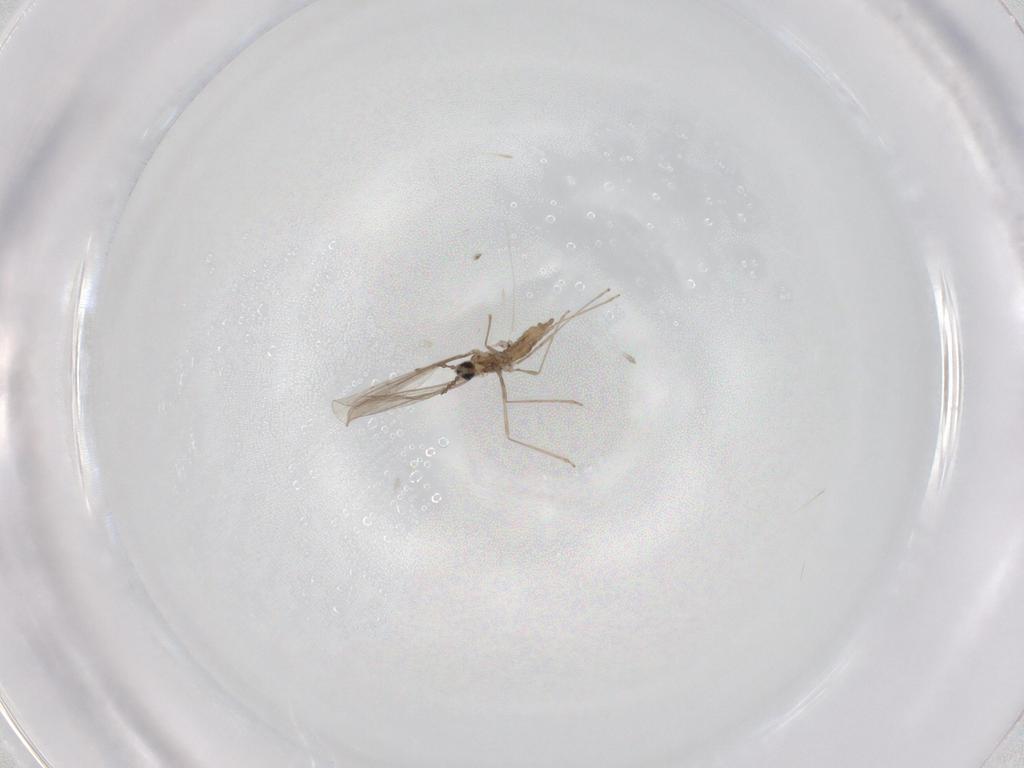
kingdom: Animalia
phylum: Arthropoda
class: Insecta
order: Diptera
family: Cecidomyiidae
